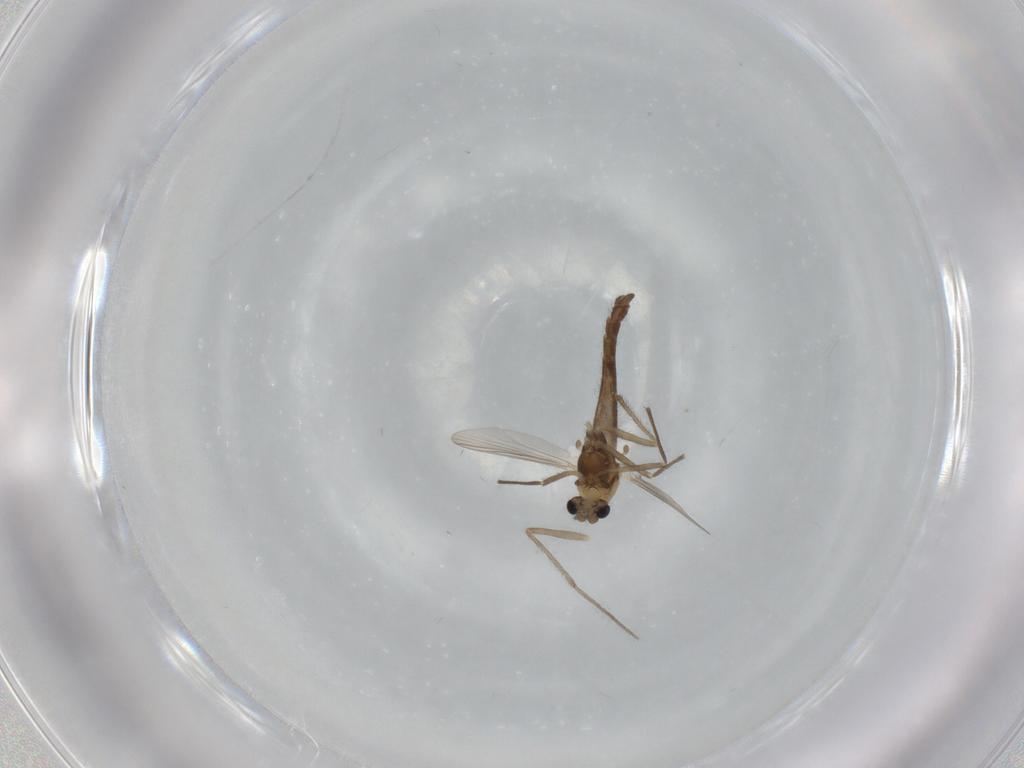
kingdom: Animalia
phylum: Arthropoda
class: Insecta
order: Diptera
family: Chironomidae
